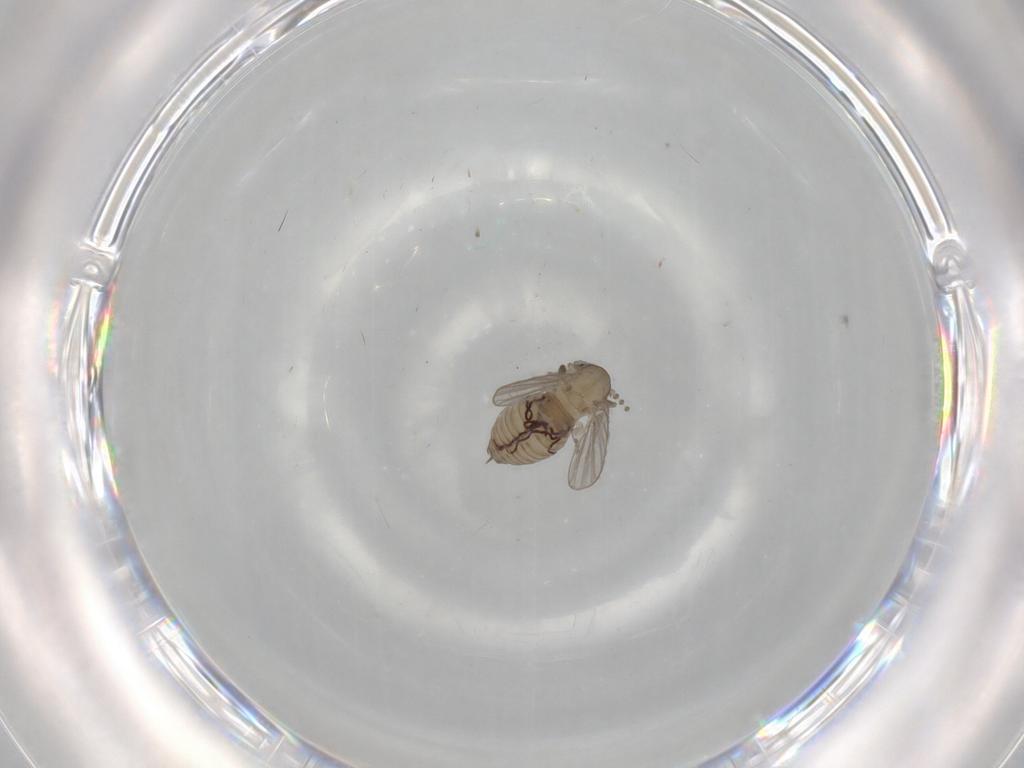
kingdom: Animalia
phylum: Arthropoda
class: Insecta
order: Diptera
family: Psychodidae
